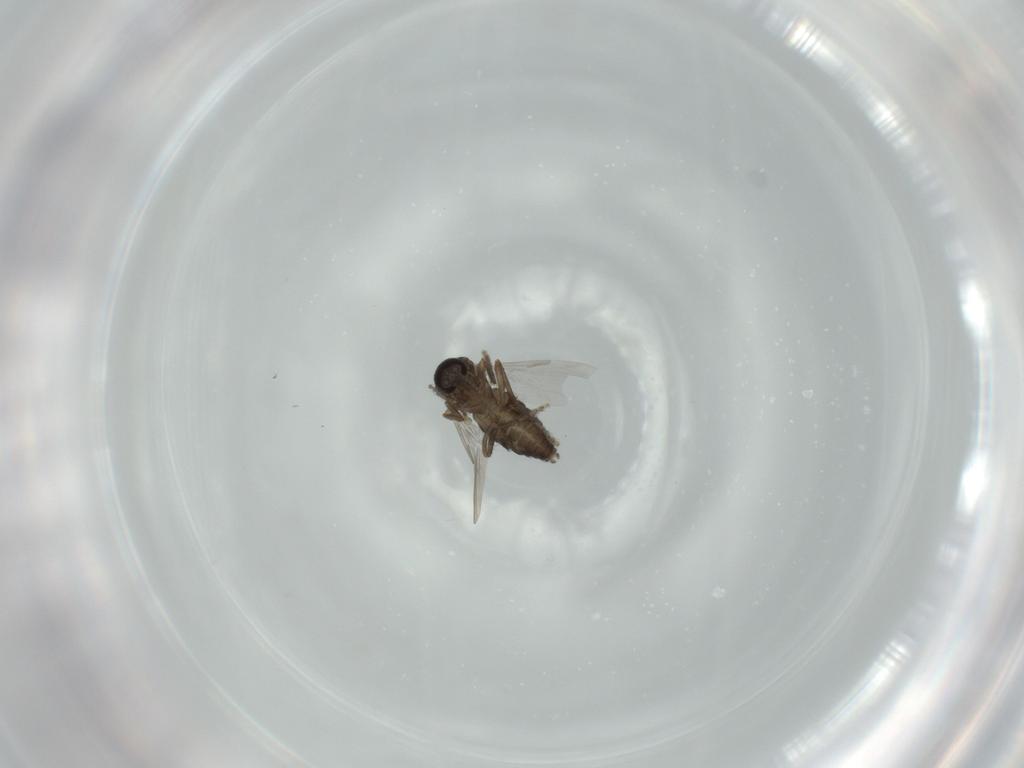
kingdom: Animalia
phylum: Arthropoda
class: Insecta
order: Diptera
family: Ceratopogonidae
